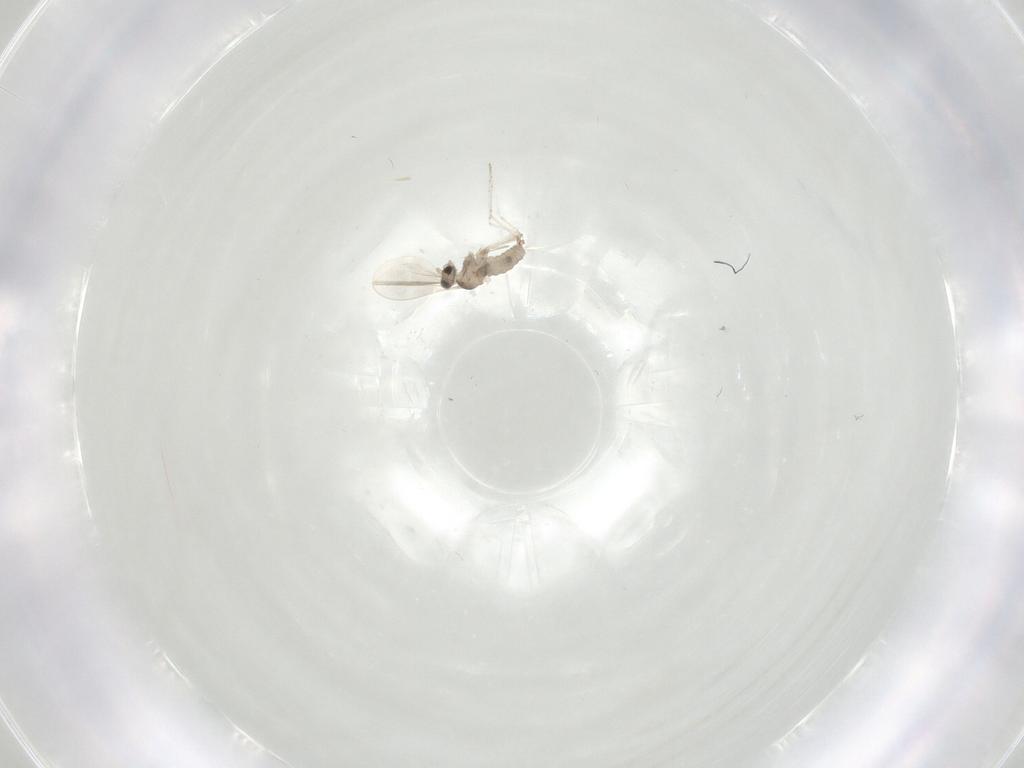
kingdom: Animalia
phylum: Arthropoda
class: Insecta
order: Diptera
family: Cecidomyiidae
